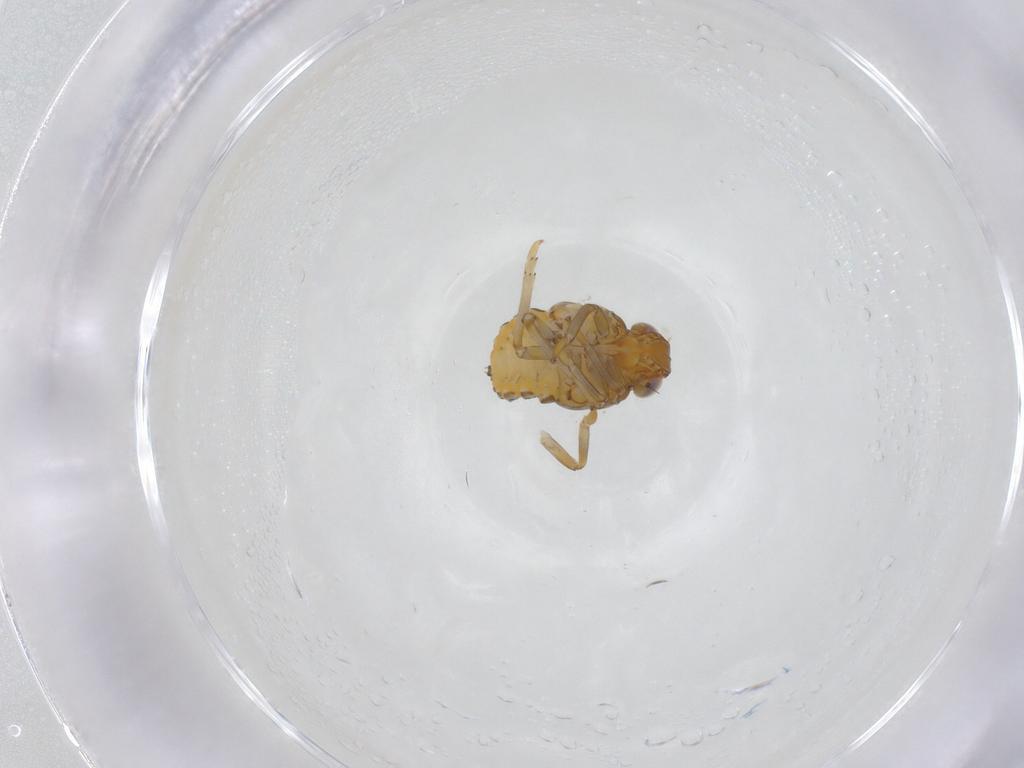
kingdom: Animalia
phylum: Arthropoda
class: Insecta
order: Hemiptera
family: Issidae
